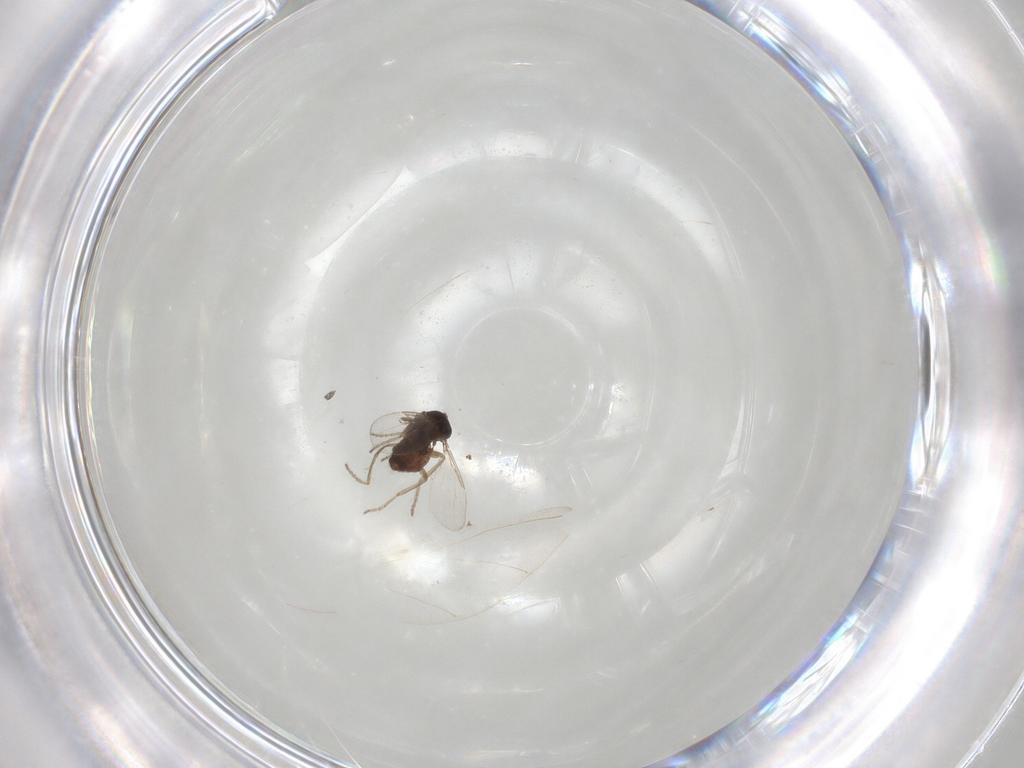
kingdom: Animalia
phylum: Arthropoda
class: Insecta
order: Diptera
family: Ceratopogonidae
